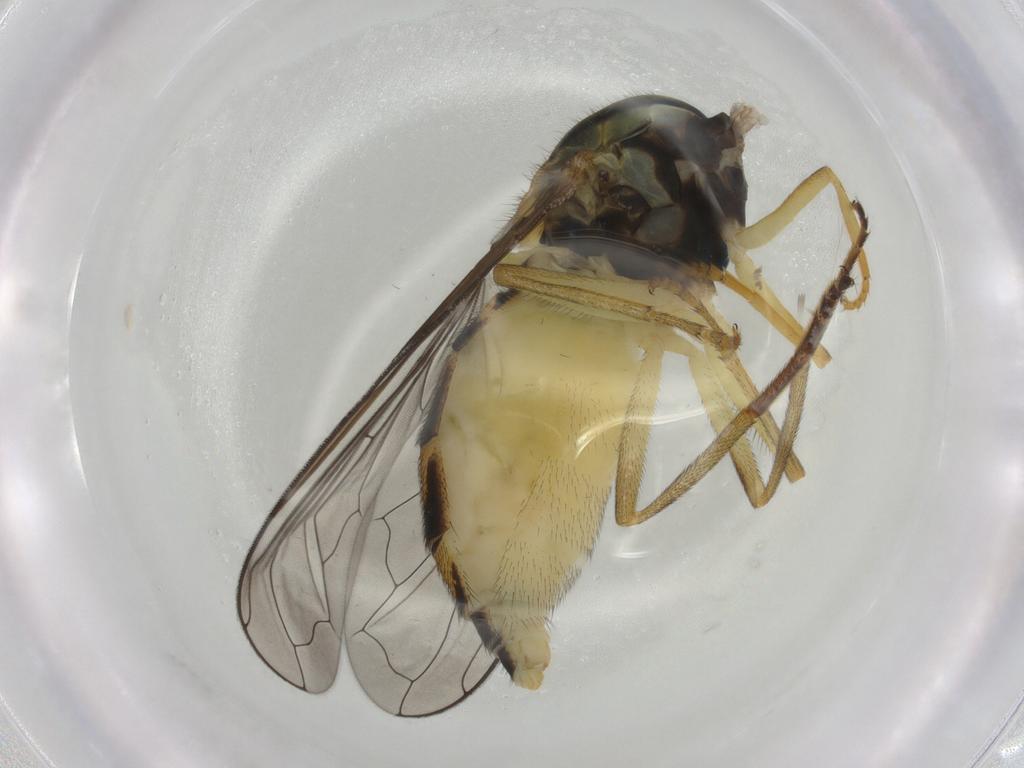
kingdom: Animalia
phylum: Arthropoda
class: Insecta
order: Diptera
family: Syrphidae
